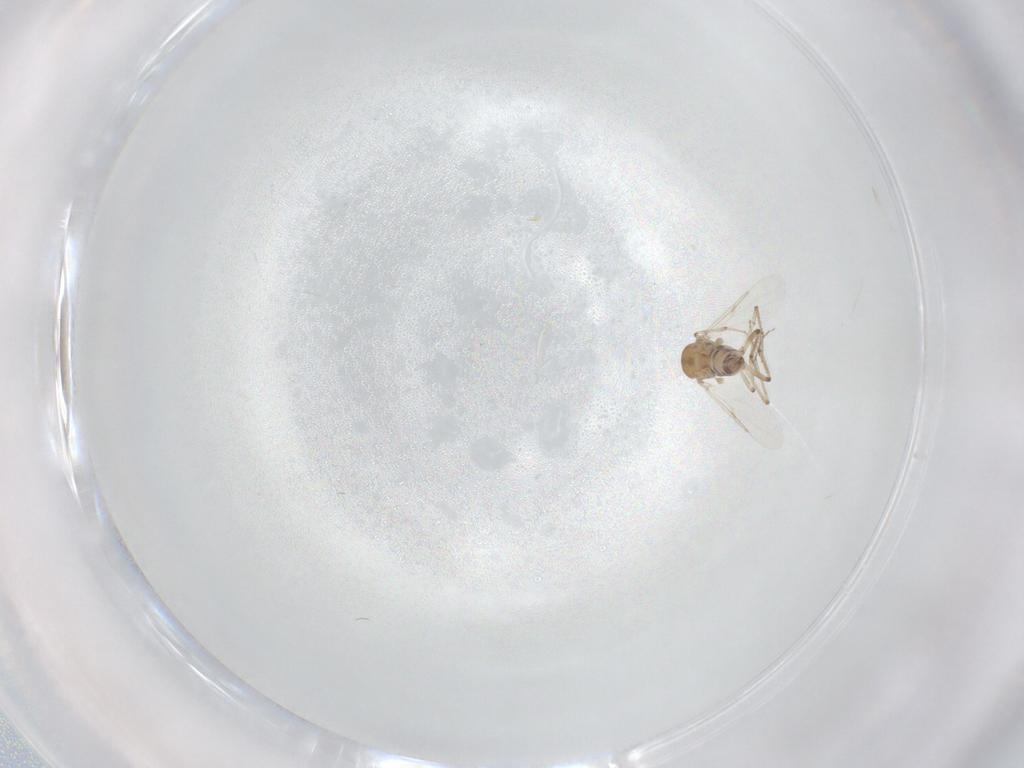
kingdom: Animalia
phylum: Arthropoda
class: Insecta
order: Diptera
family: Ceratopogonidae
